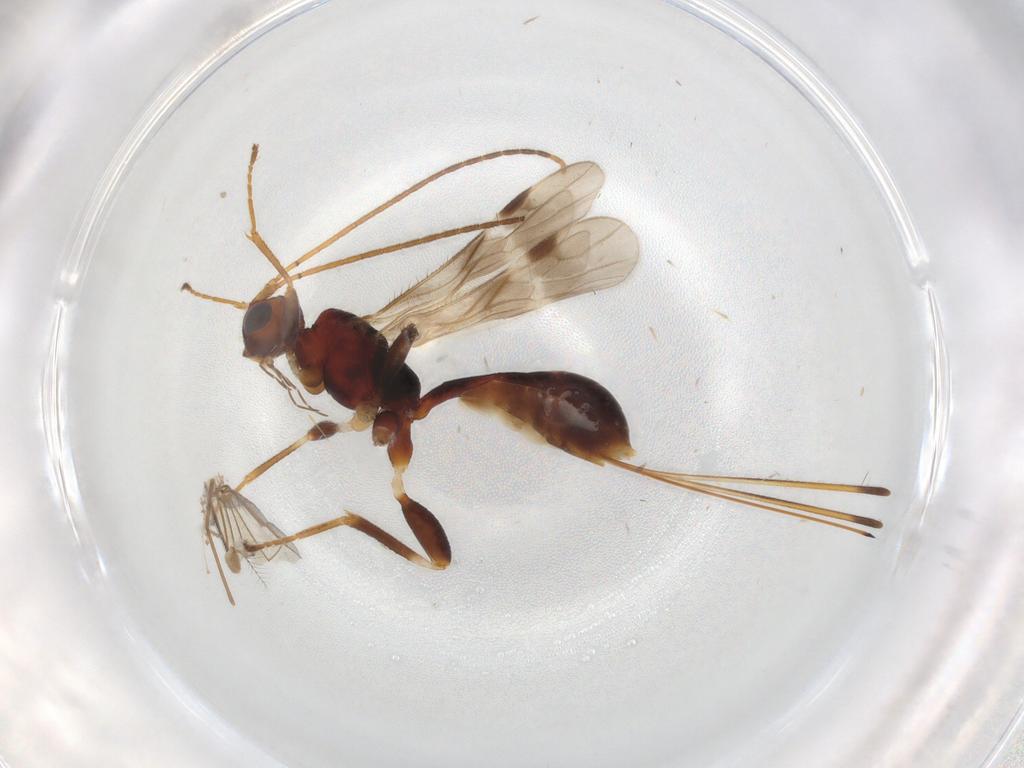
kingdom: Animalia
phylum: Arthropoda
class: Insecta
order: Hymenoptera
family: Braconidae
